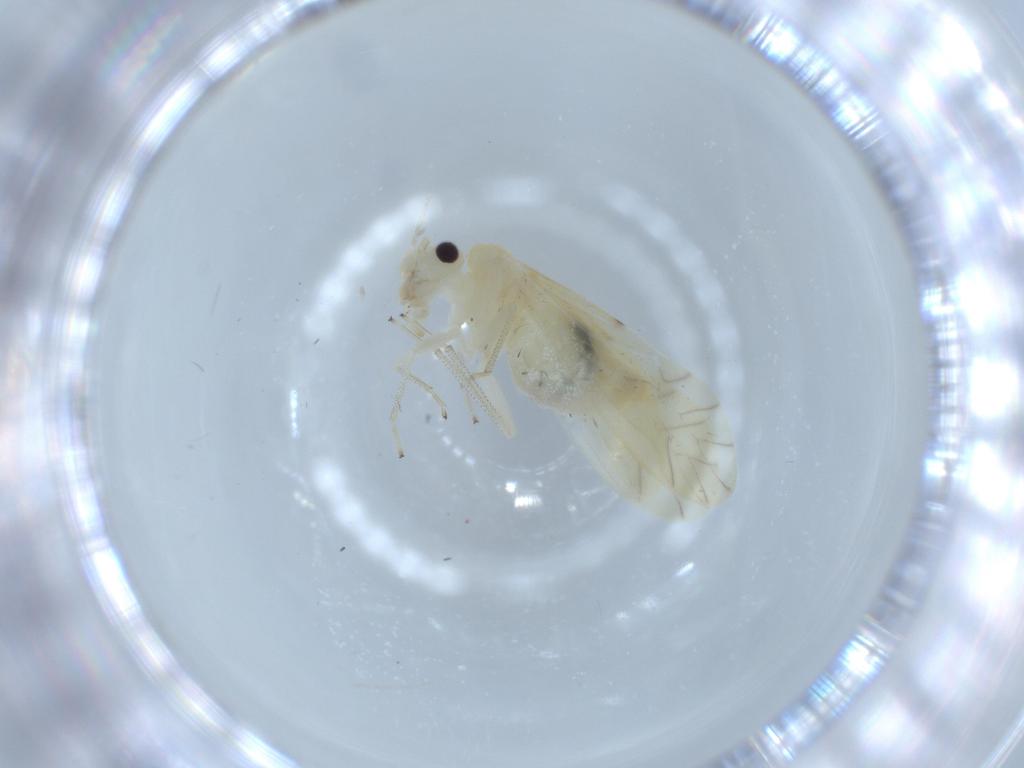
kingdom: Animalia
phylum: Arthropoda
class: Insecta
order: Psocodea
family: Caeciliusidae
